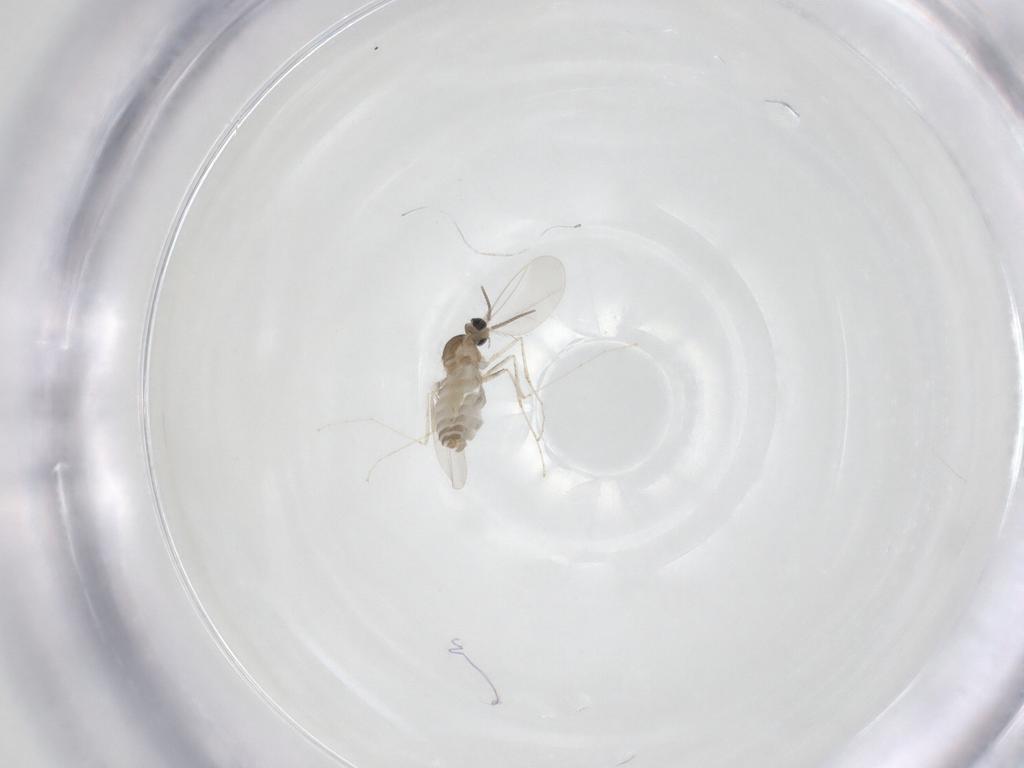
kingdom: Animalia
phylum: Arthropoda
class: Insecta
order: Diptera
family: Cecidomyiidae
